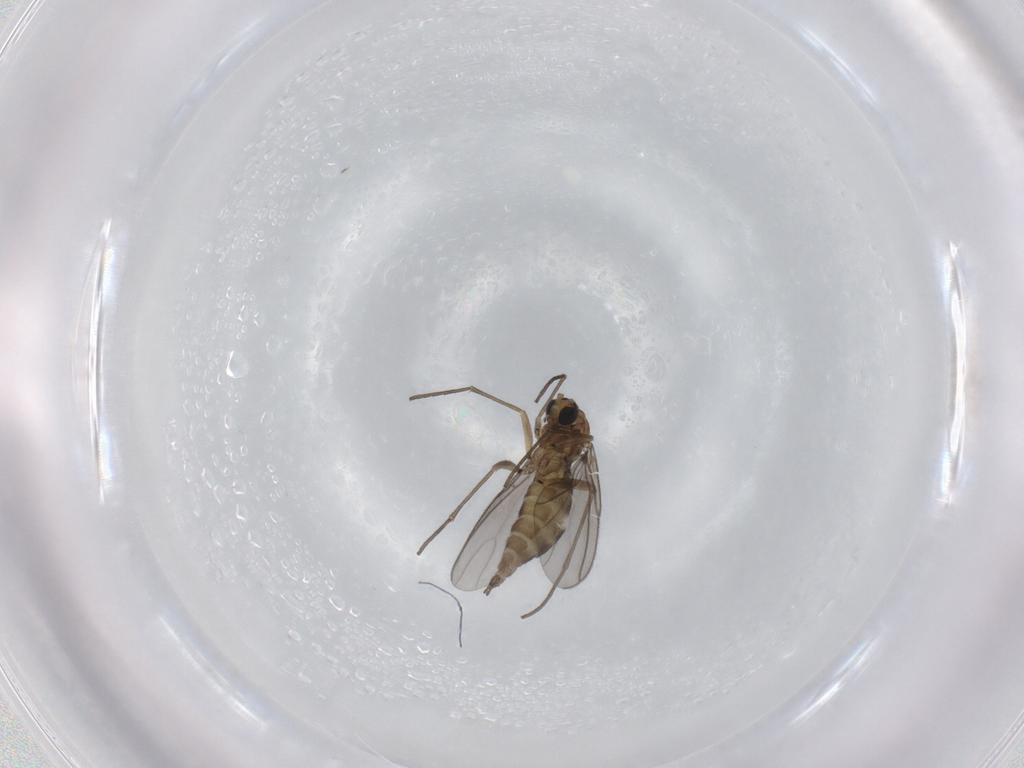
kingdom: Animalia
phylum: Arthropoda
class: Insecta
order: Diptera
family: Sciaridae
